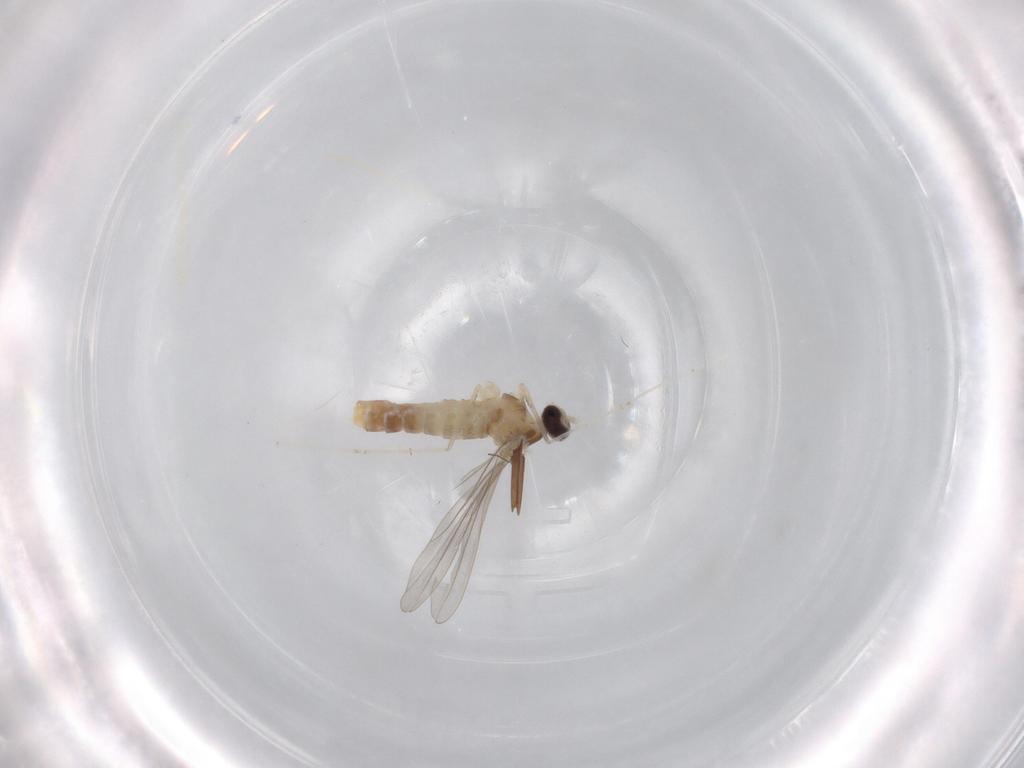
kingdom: Animalia
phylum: Arthropoda
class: Insecta
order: Diptera
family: Cecidomyiidae
